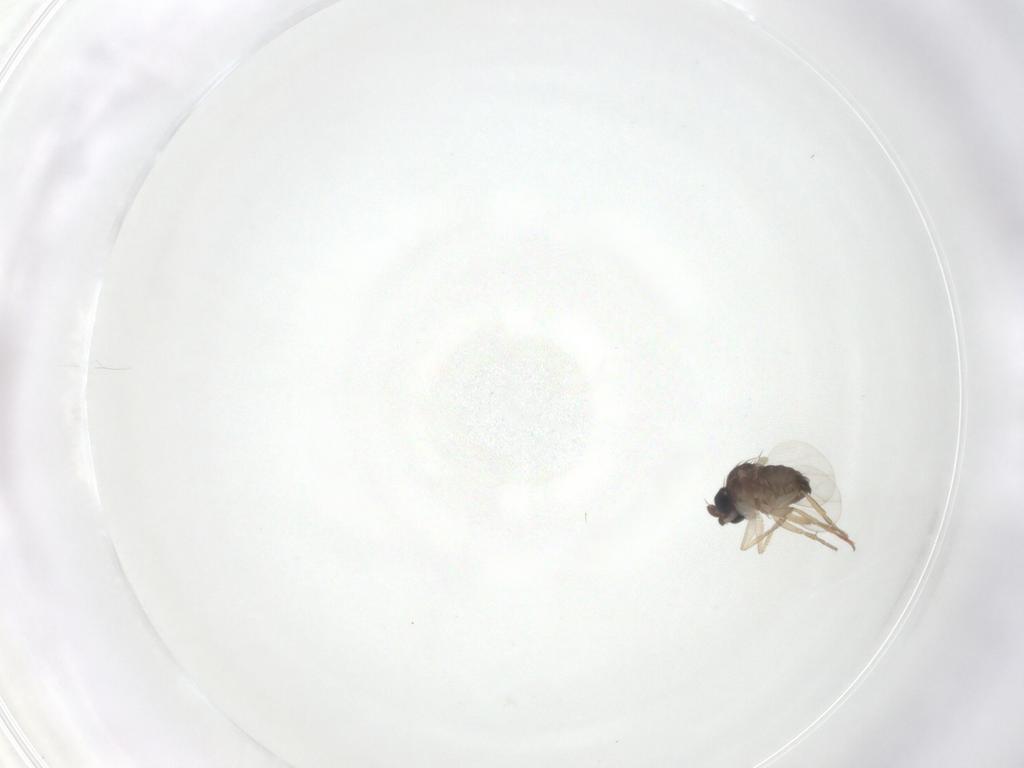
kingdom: Animalia
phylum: Arthropoda
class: Insecta
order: Diptera
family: Phoridae
